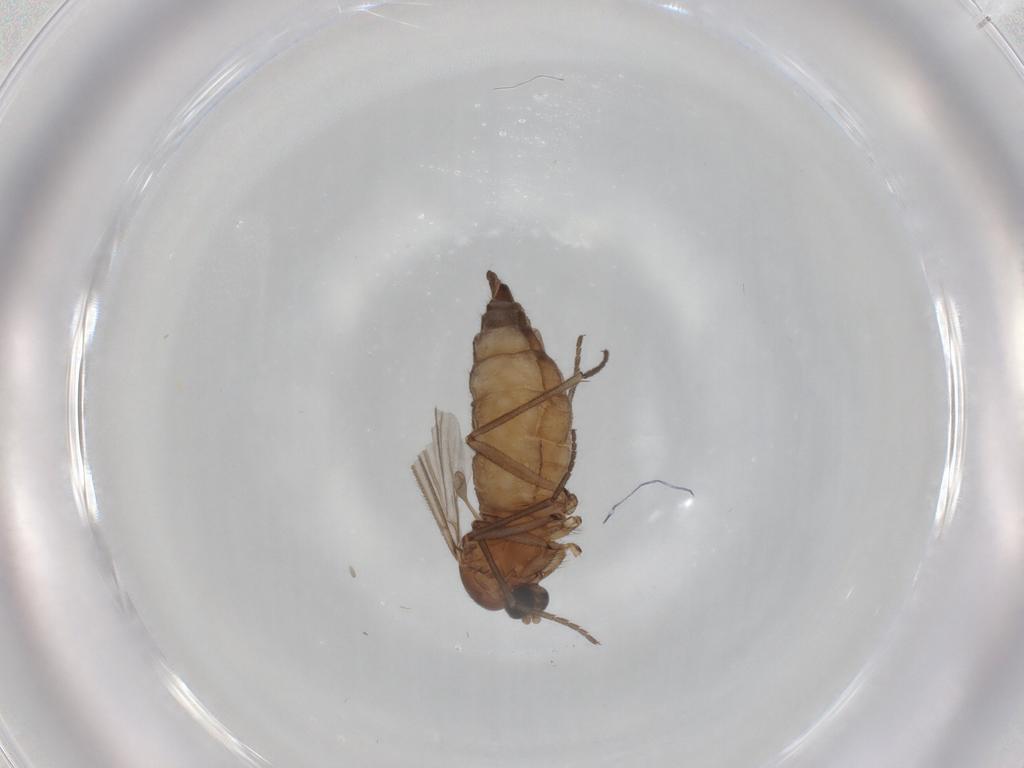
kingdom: Animalia
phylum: Arthropoda
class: Insecta
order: Diptera
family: Sciaridae
